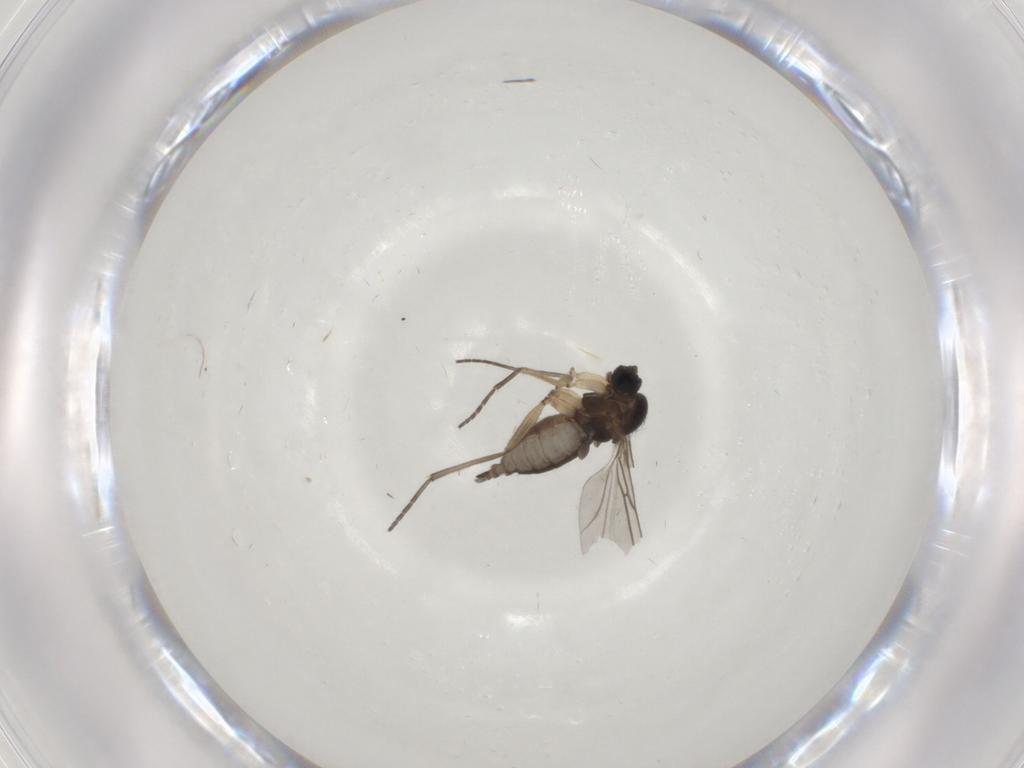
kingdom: Animalia
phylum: Arthropoda
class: Insecta
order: Diptera
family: Sciaridae
